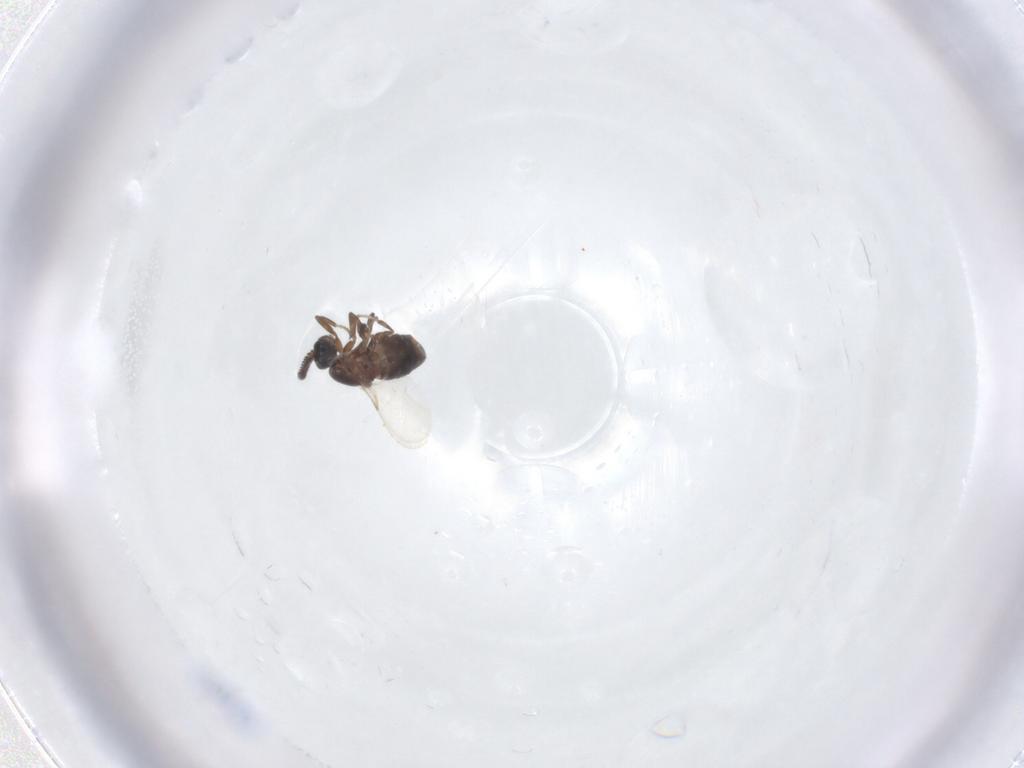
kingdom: Animalia
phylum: Arthropoda
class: Insecta
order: Diptera
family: Scatopsidae
